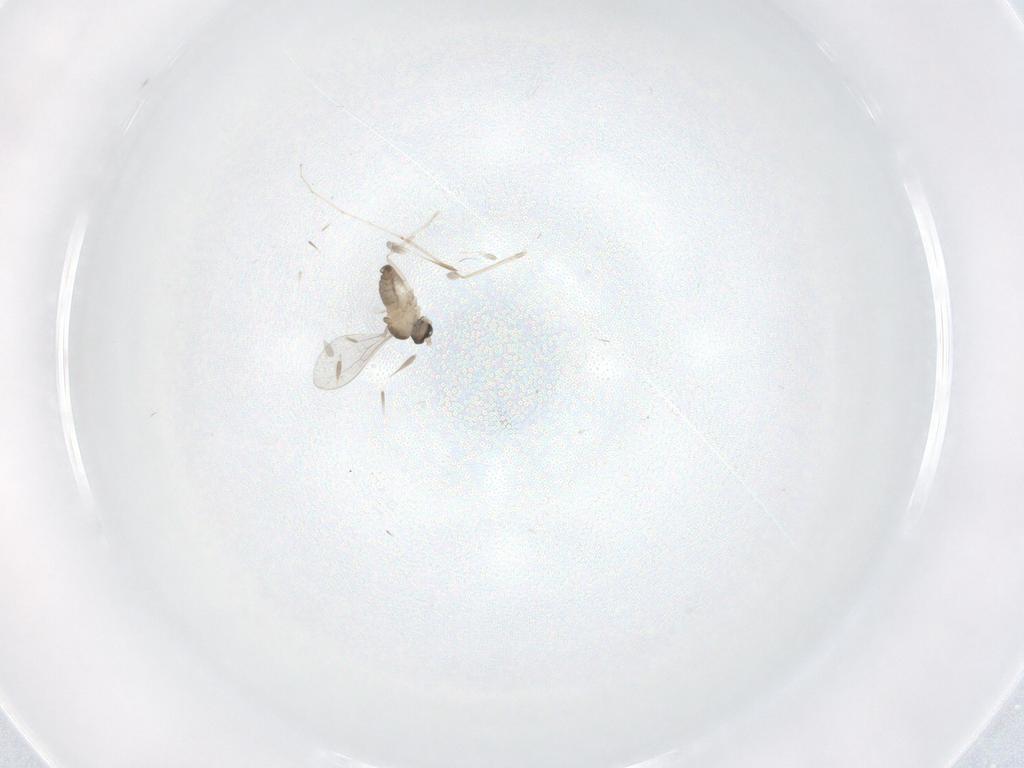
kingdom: Animalia
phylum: Arthropoda
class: Insecta
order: Diptera
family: Cecidomyiidae
